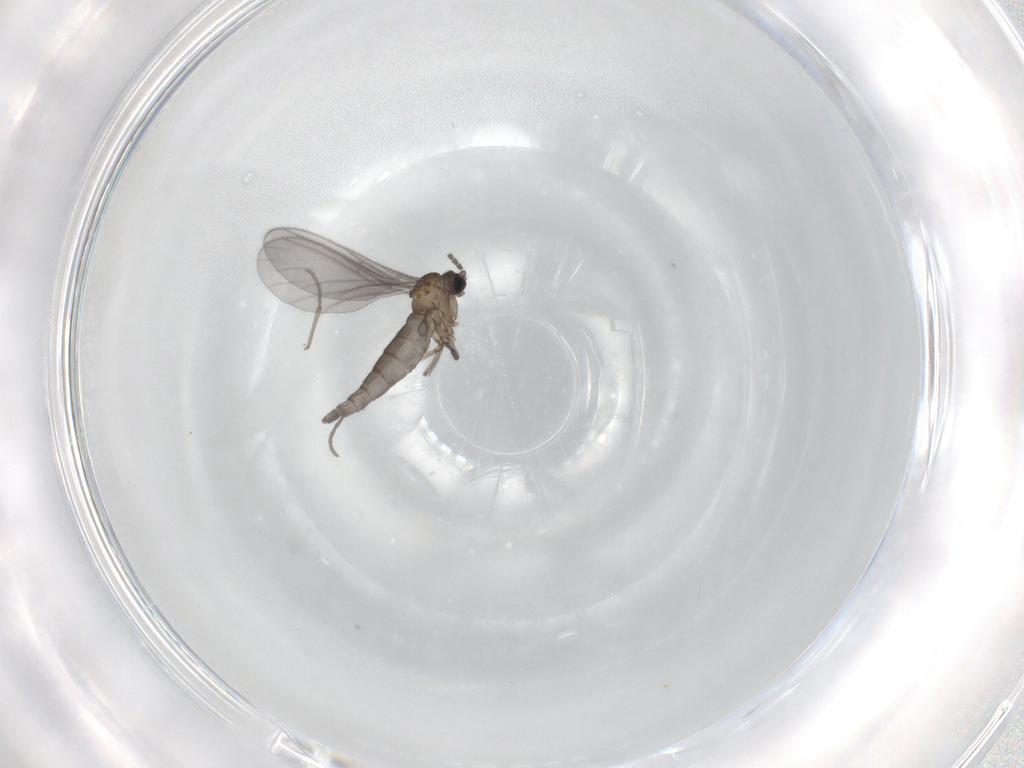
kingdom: Animalia
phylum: Arthropoda
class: Insecta
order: Diptera
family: Sciaridae
